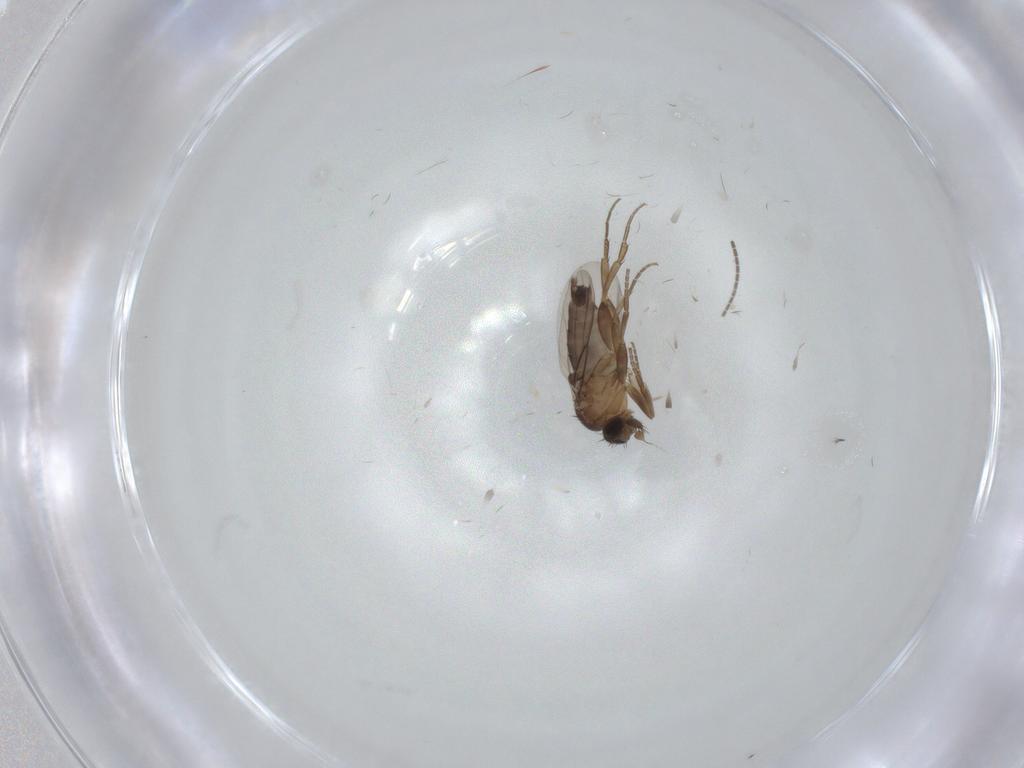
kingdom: Animalia
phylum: Arthropoda
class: Insecta
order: Diptera
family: Phoridae
